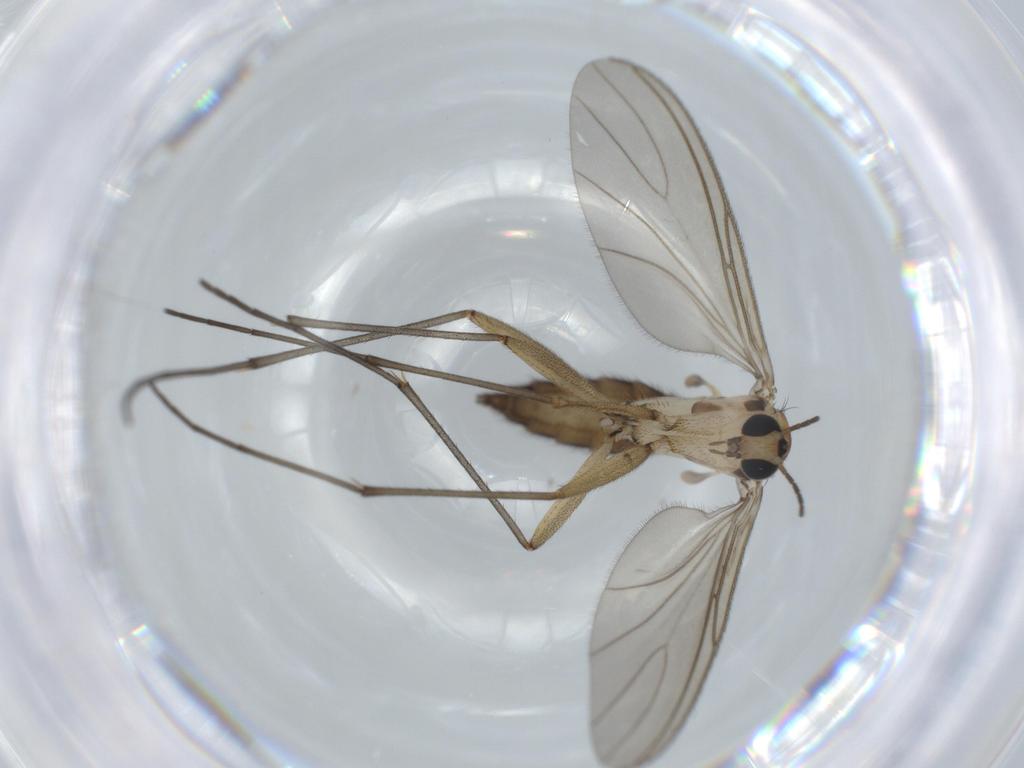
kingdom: Animalia
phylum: Arthropoda
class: Insecta
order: Diptera
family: Sciaridae
